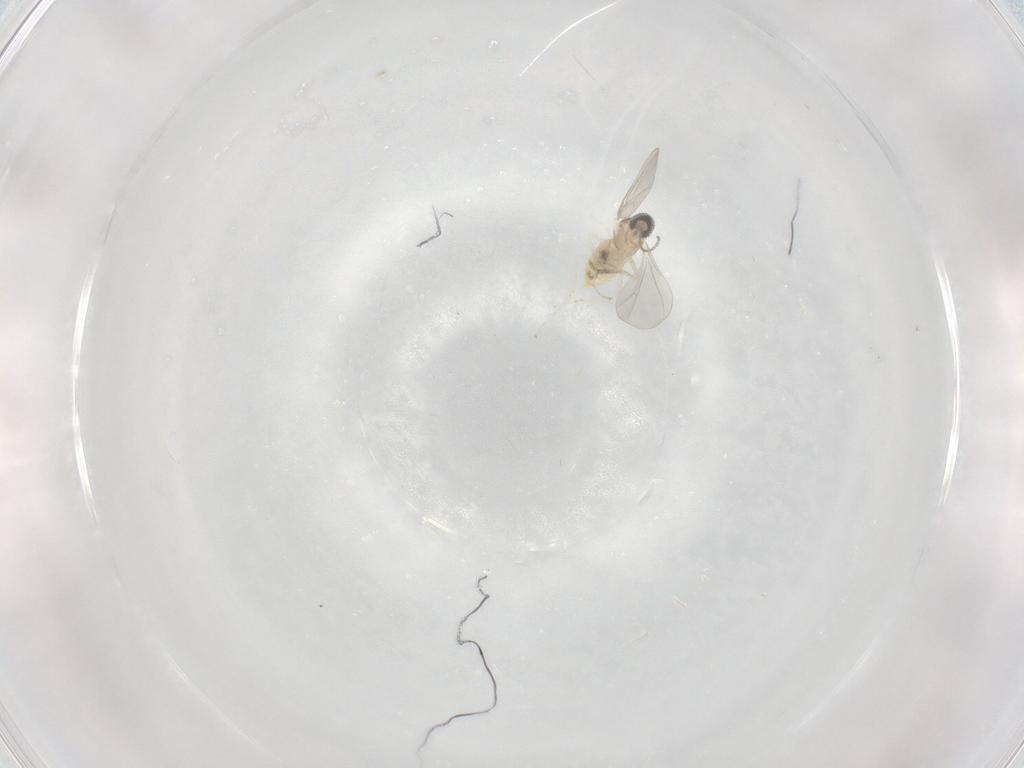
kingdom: Animalia
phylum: Arthropoda
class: Insecta
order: Diptera
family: Cecidomyiidae
